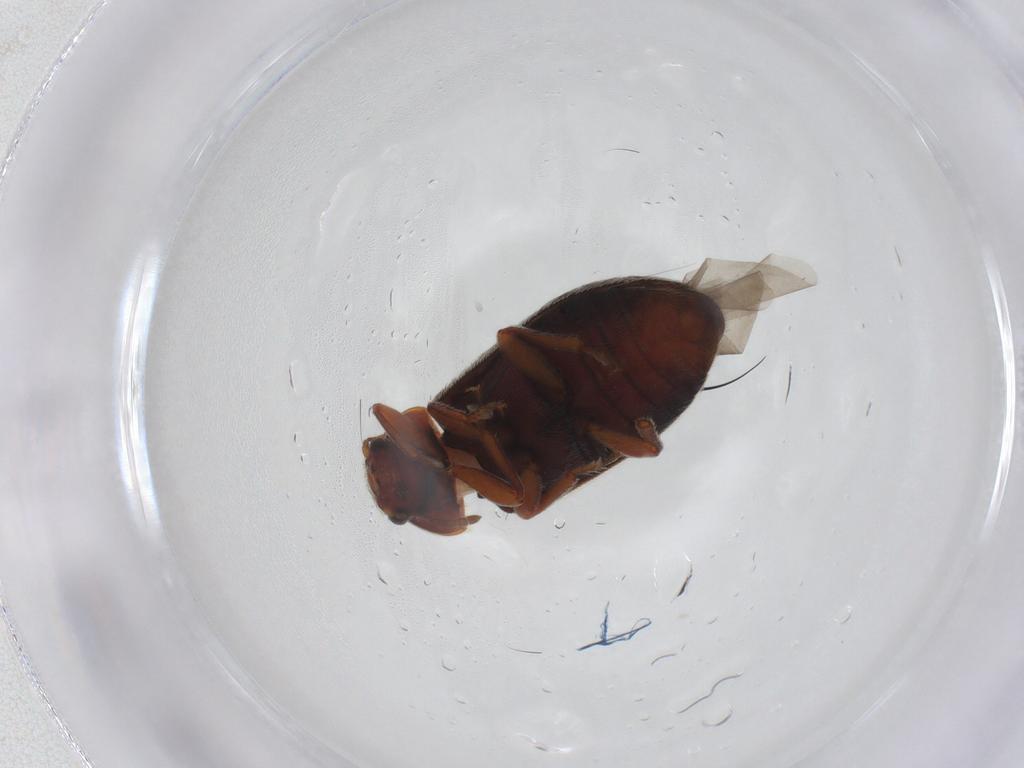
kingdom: Animalia
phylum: Arthropoda
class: Insecta
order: Coleoptera
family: Byturidae
